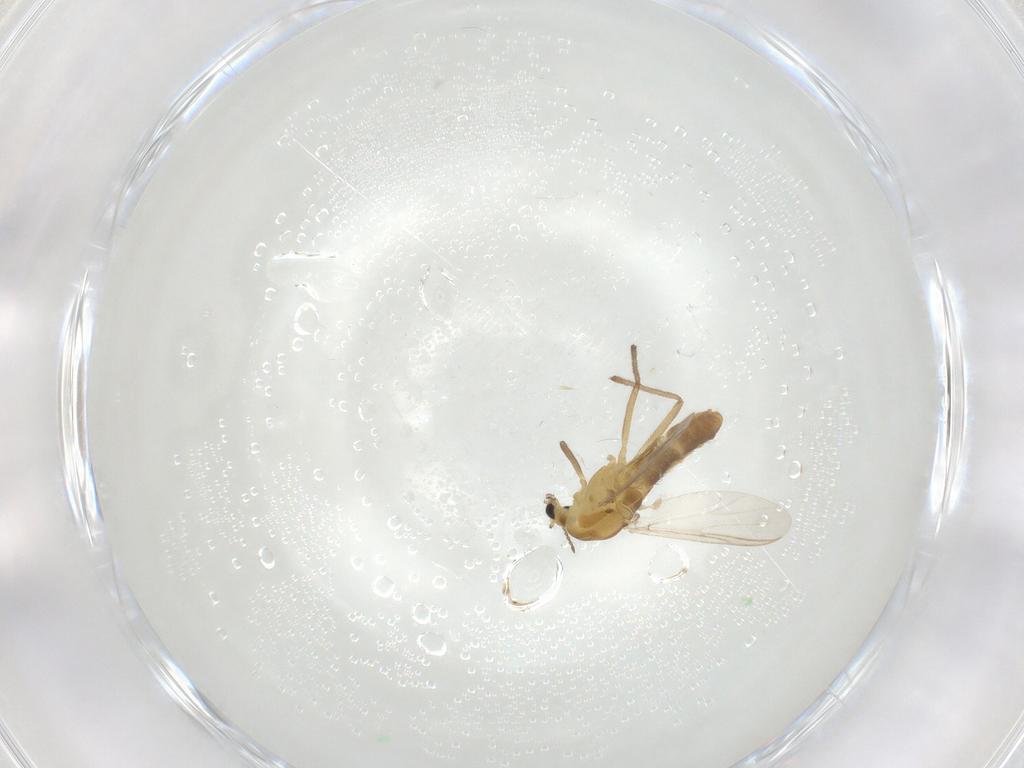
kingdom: Animalia
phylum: Arthropoda
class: Insecta
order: Diptera
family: Chironomidae
